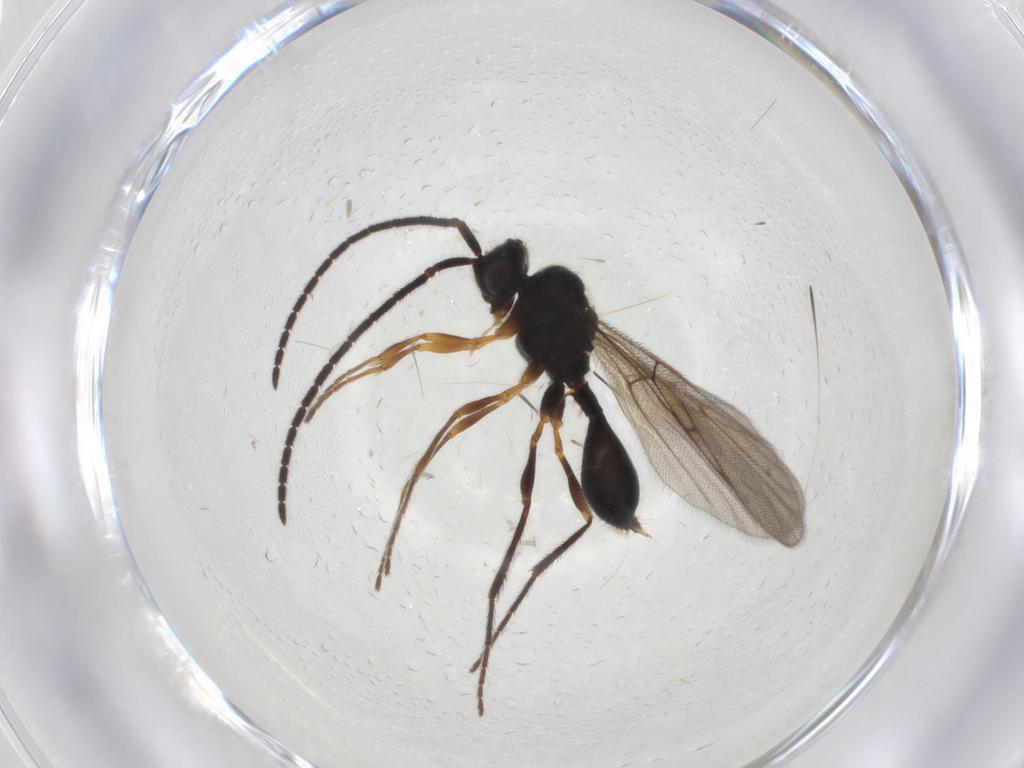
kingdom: Animalia
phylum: Arthropoda
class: Insecta
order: Hymenoptera
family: Diapriidae
